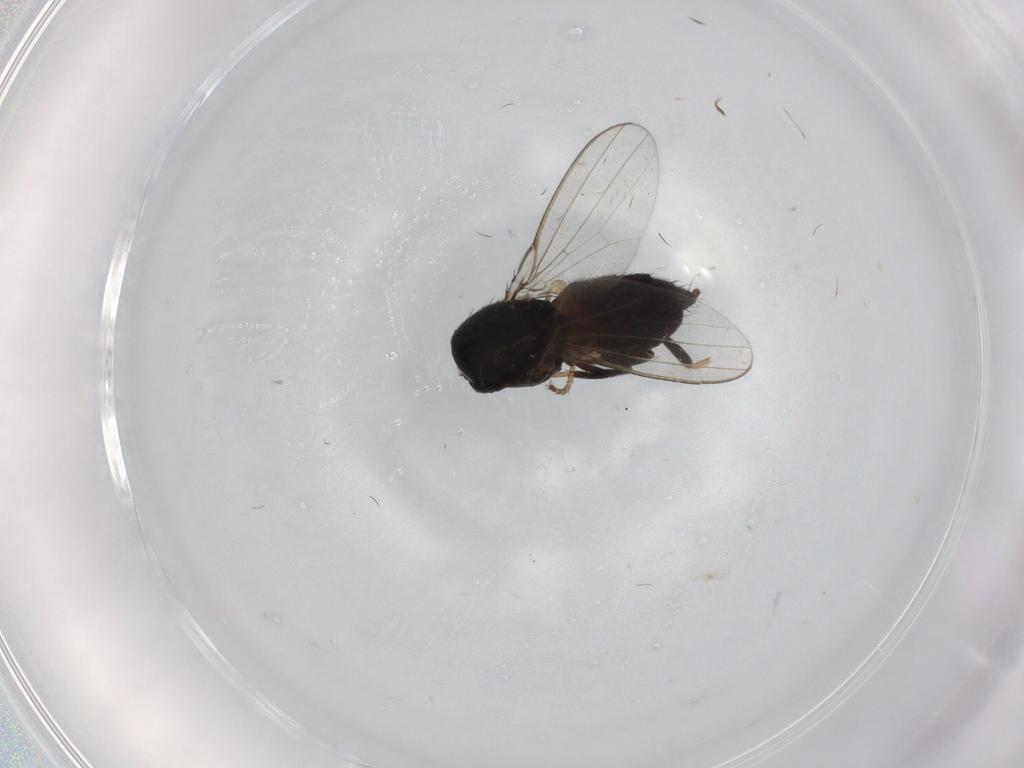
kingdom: Animalia
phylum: Arthropoda
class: Insecta
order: Diptera
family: Milichiidae
